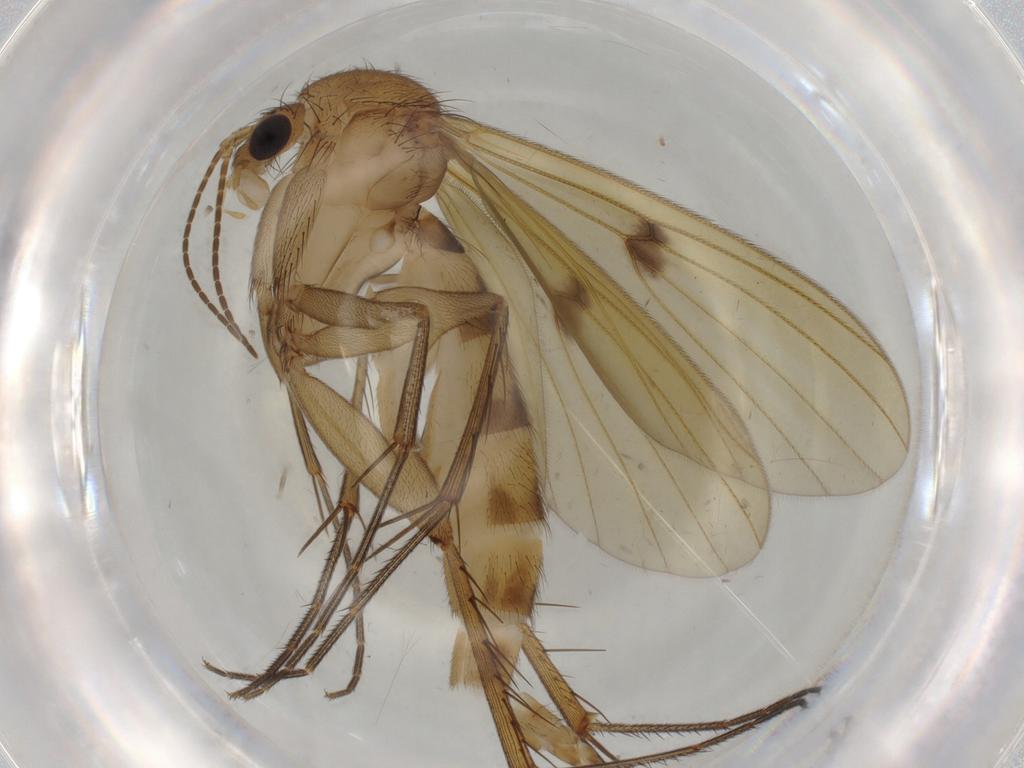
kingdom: Animalia
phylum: Arthropoda
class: Insecta
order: Diptera
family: Mycetophilidae
